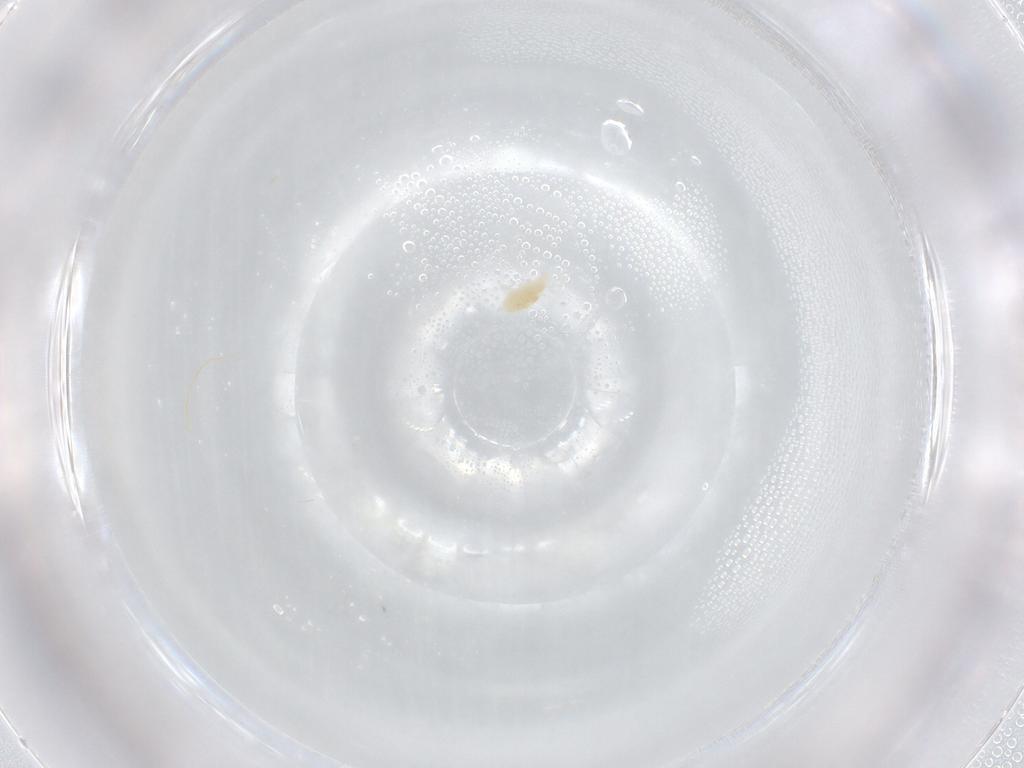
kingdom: Animalia
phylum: Arthropoda
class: Arachnida
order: Trombidiformes
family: Eupodidae
